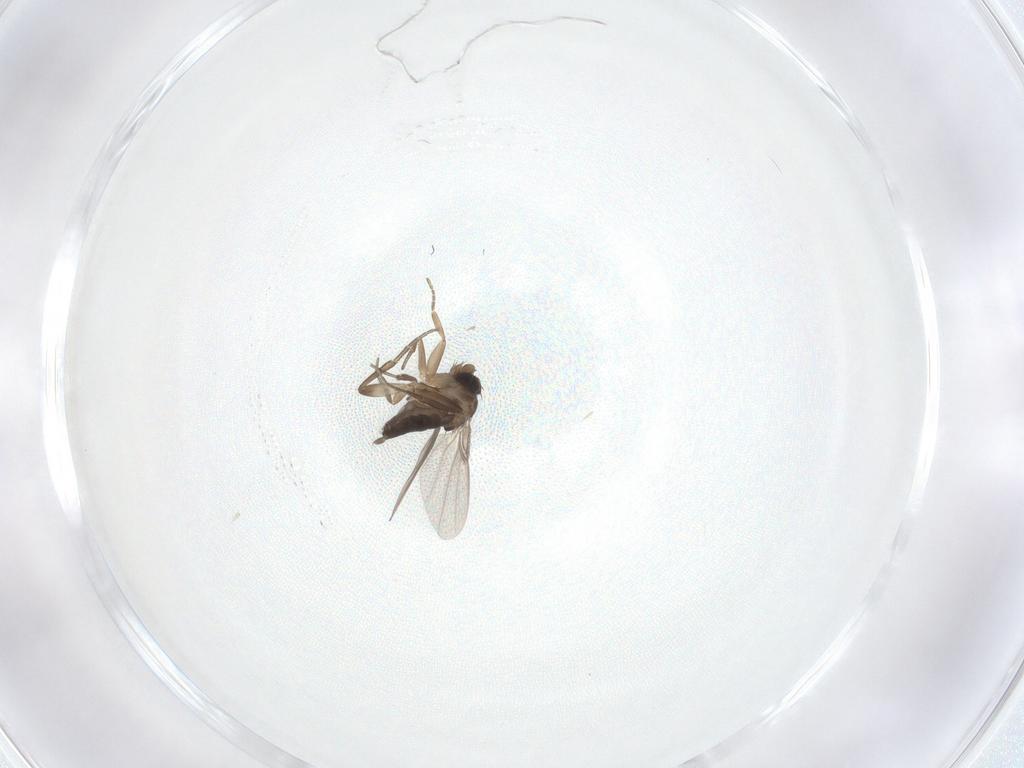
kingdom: Animalia
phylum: Arthropoda
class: Insecta
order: Diptera
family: Phoridae
